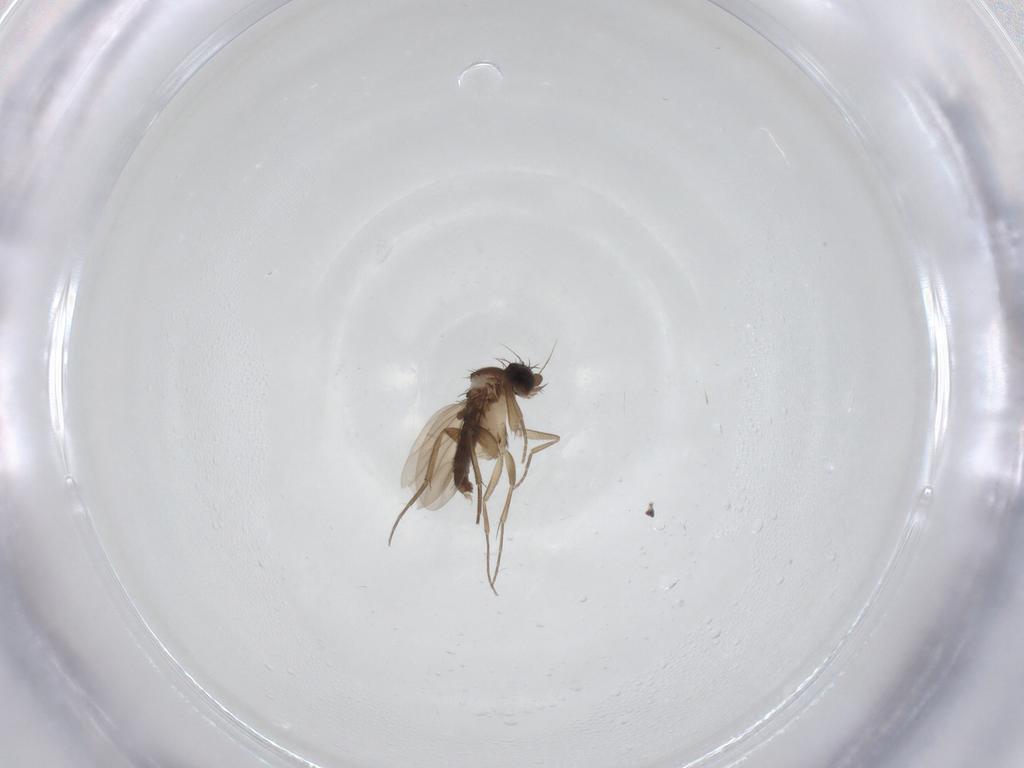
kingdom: Animalia
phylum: Arthropoda
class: Insecta
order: Diptera
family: Phoridae
